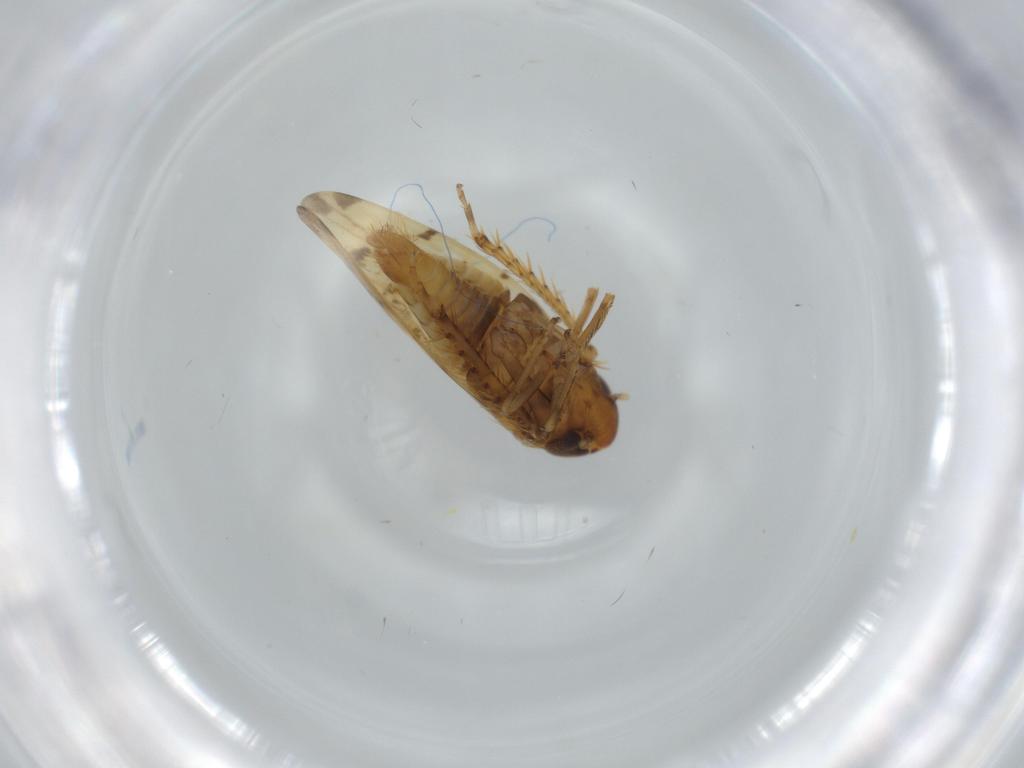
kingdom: Animalia
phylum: Arthropoda
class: Insecta
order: Hemiptera
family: Cicadellidae
